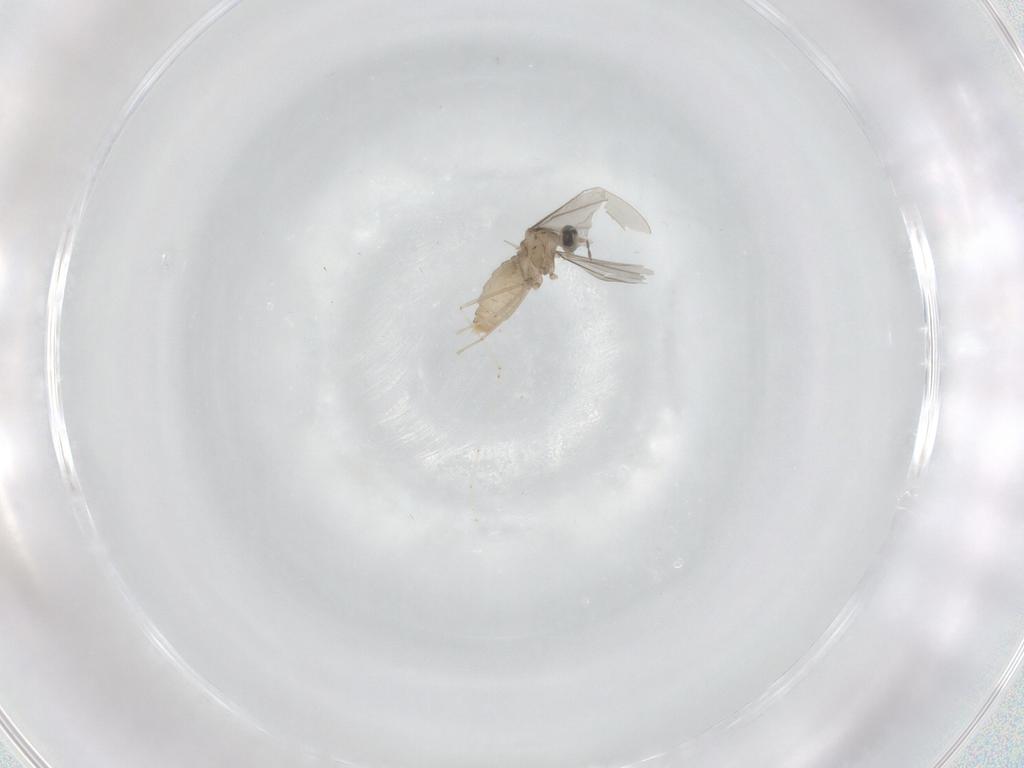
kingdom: Animalia
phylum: Arthropoda
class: Insecta
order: Diptera
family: Cecidomyiidae
